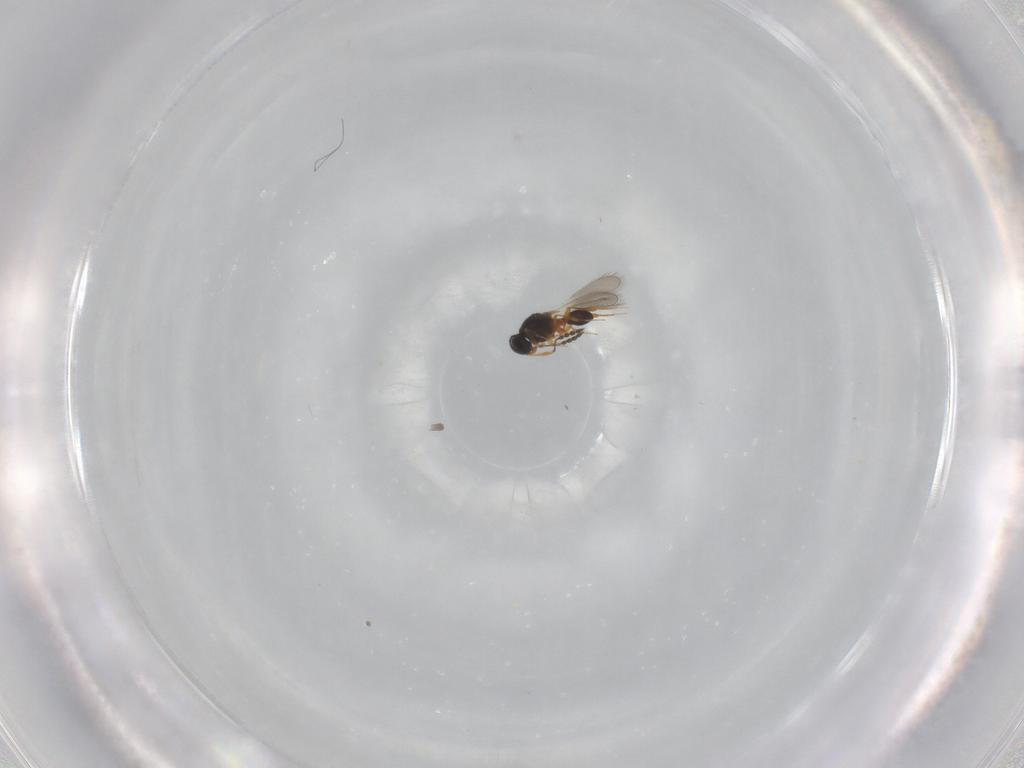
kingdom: Animalia
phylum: Arthropoda
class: Insecta
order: Hymenoptera
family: Platygastridae
